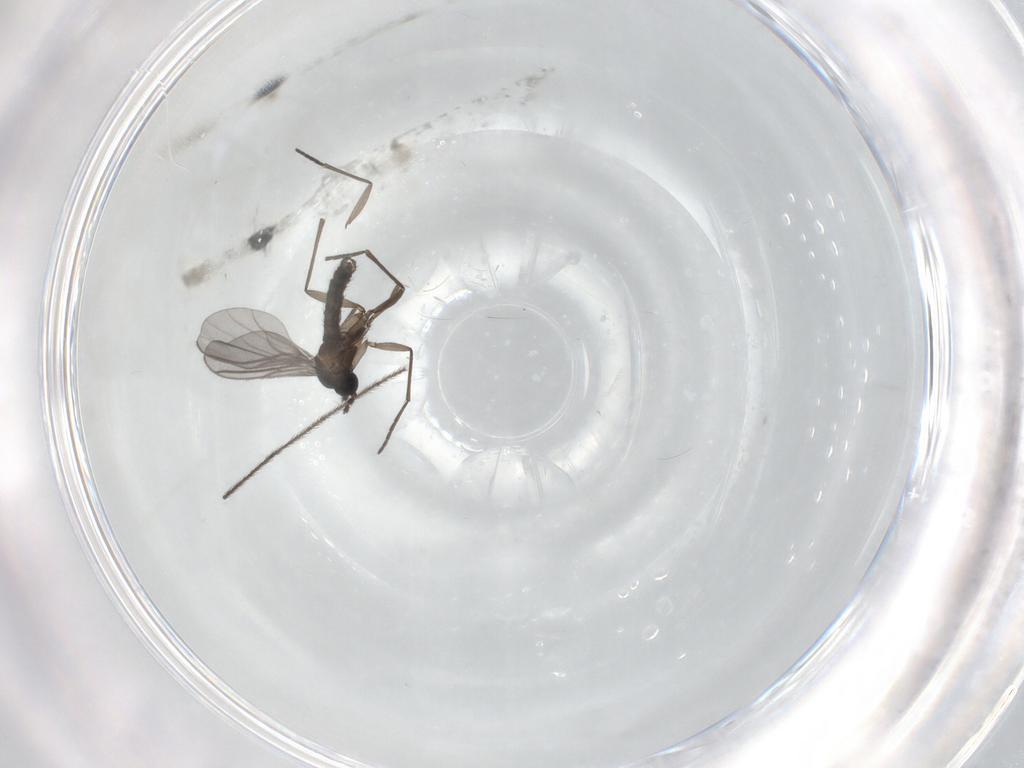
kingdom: Animalia
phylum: Arthropoda
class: Insecta
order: Diptera
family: Keroplatidae
